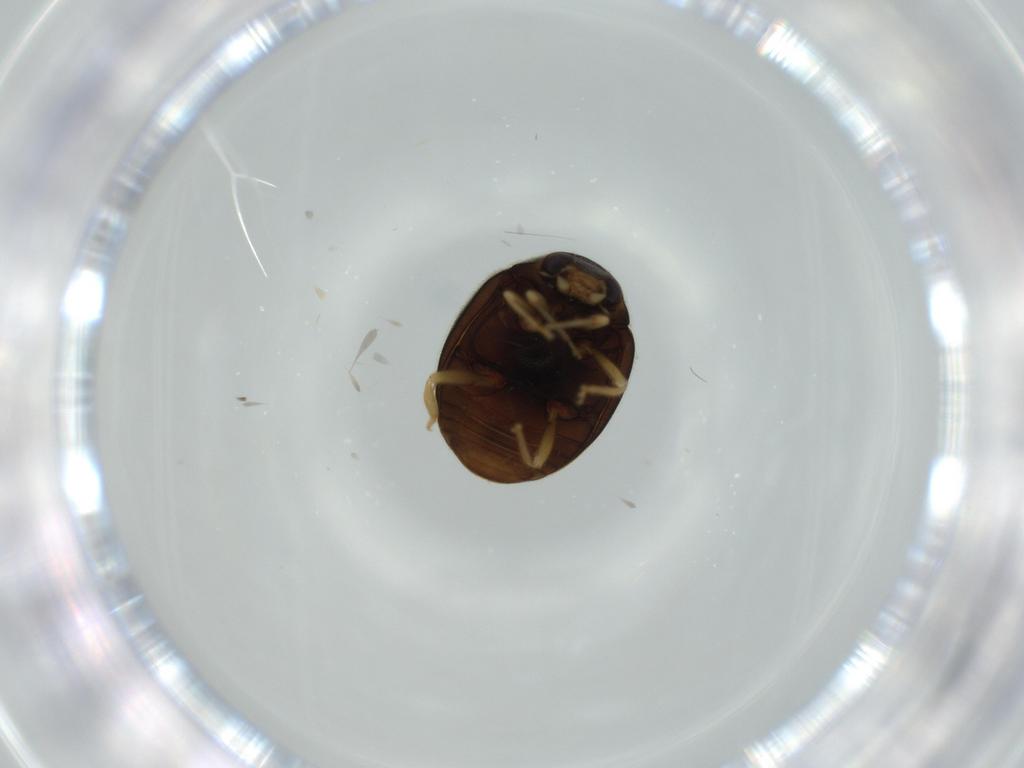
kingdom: Animalia
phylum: Arthropoda
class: Insecta
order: Coleoptera
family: Coccinellidae
